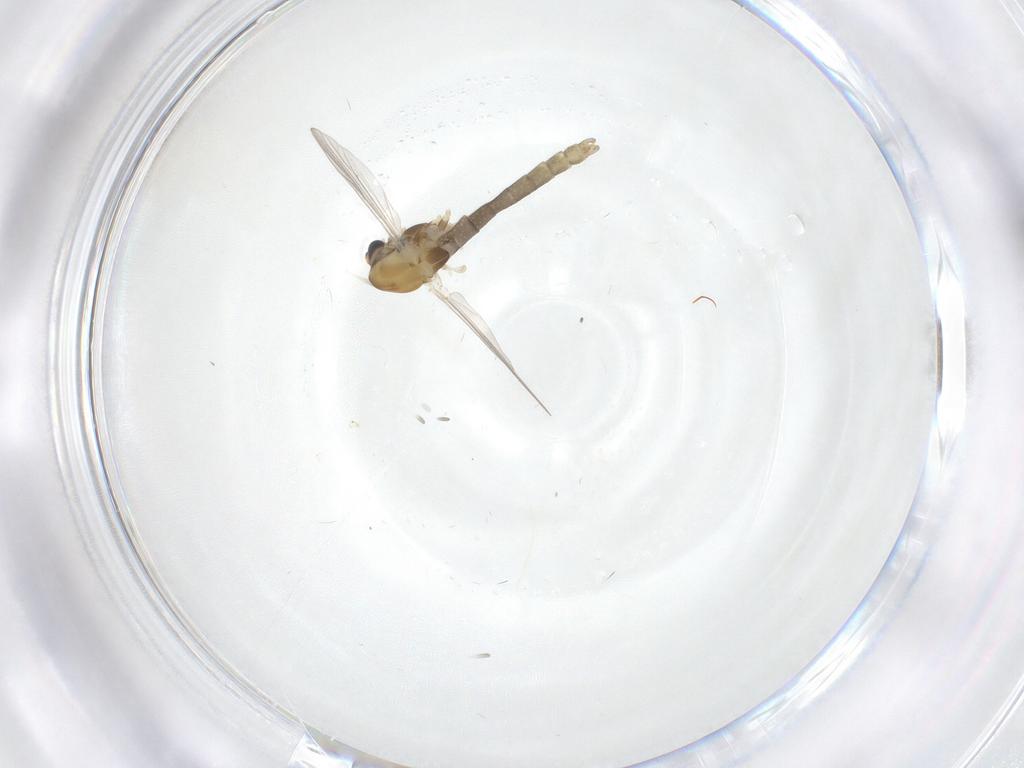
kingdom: Animalia
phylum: Arthropoda
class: Insecta
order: Diptera
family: Chironomidae
